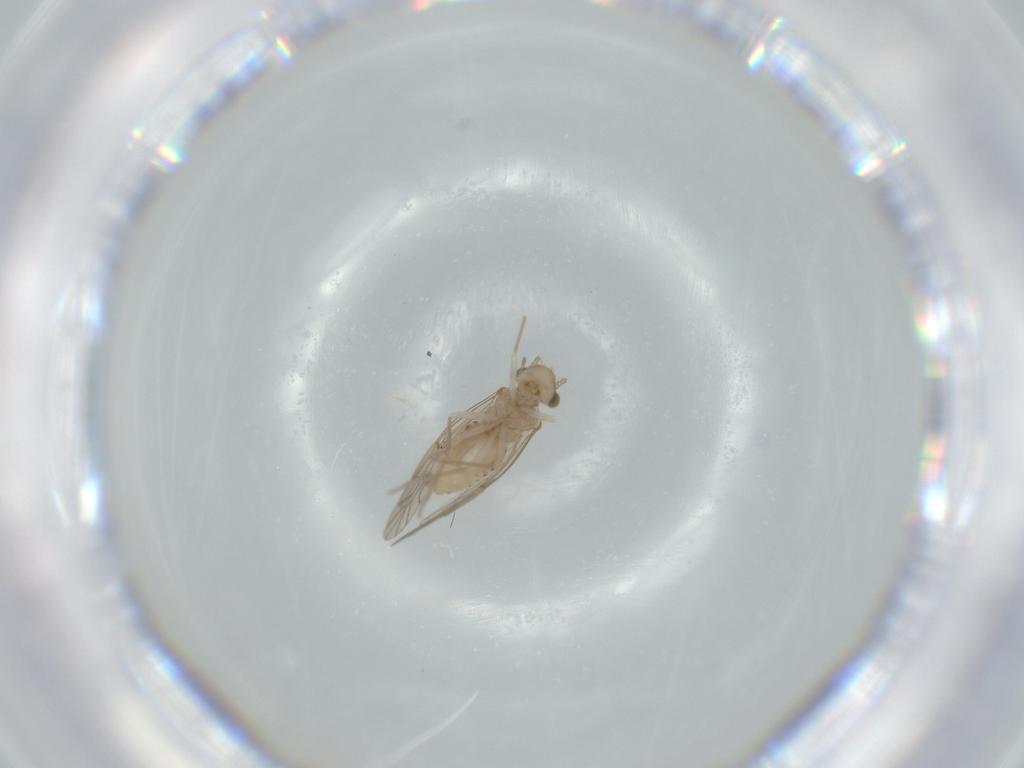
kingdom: Animalia
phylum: Arthropoda
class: Insecta
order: Psocodea
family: Lachesillidae
